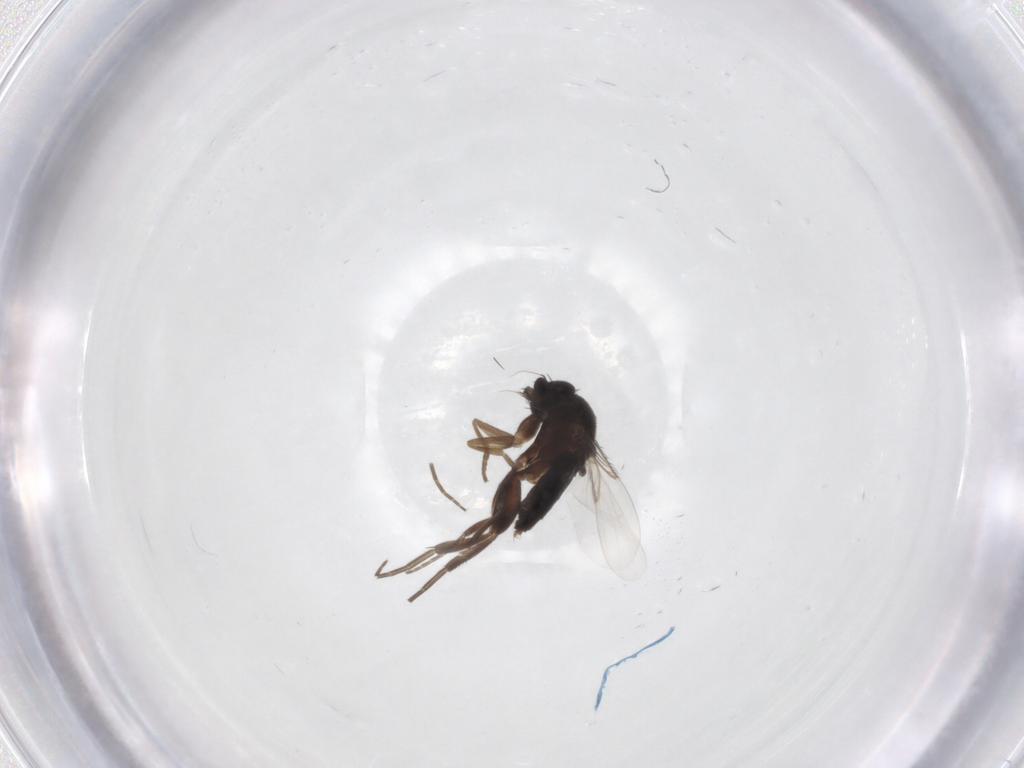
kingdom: Animalia
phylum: Arthropoda
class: Insecta
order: Diptera
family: Phoridae
